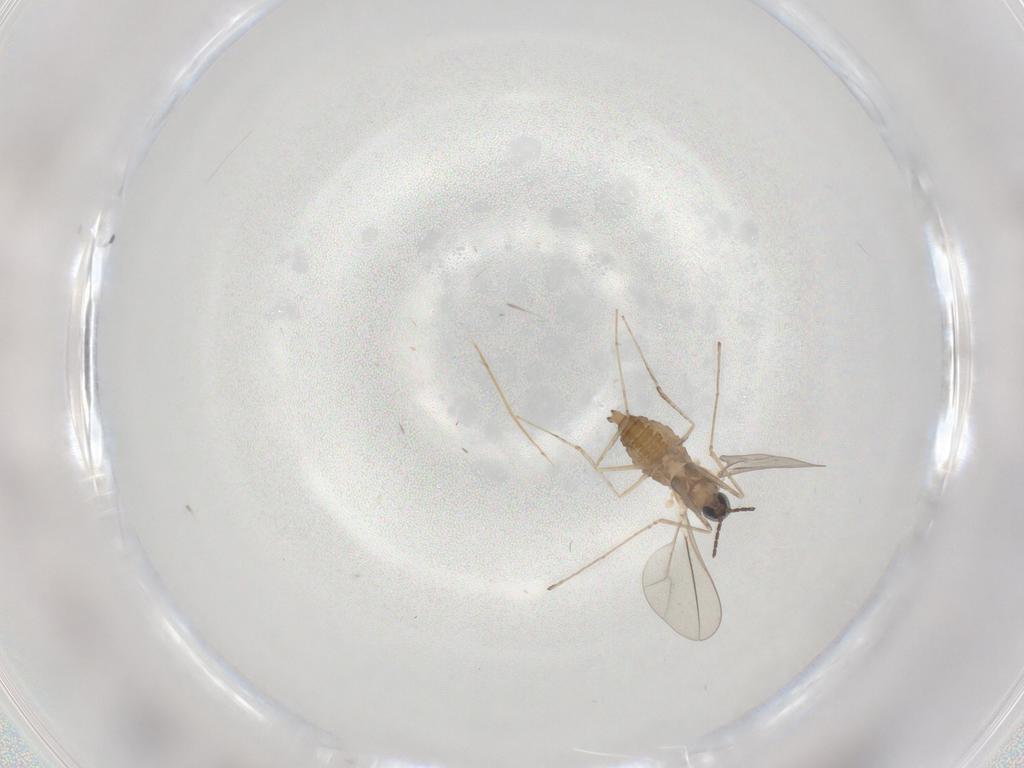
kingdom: Animalia
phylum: Arthropoda
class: Insecta
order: Diptera
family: Cecidomyiidae
